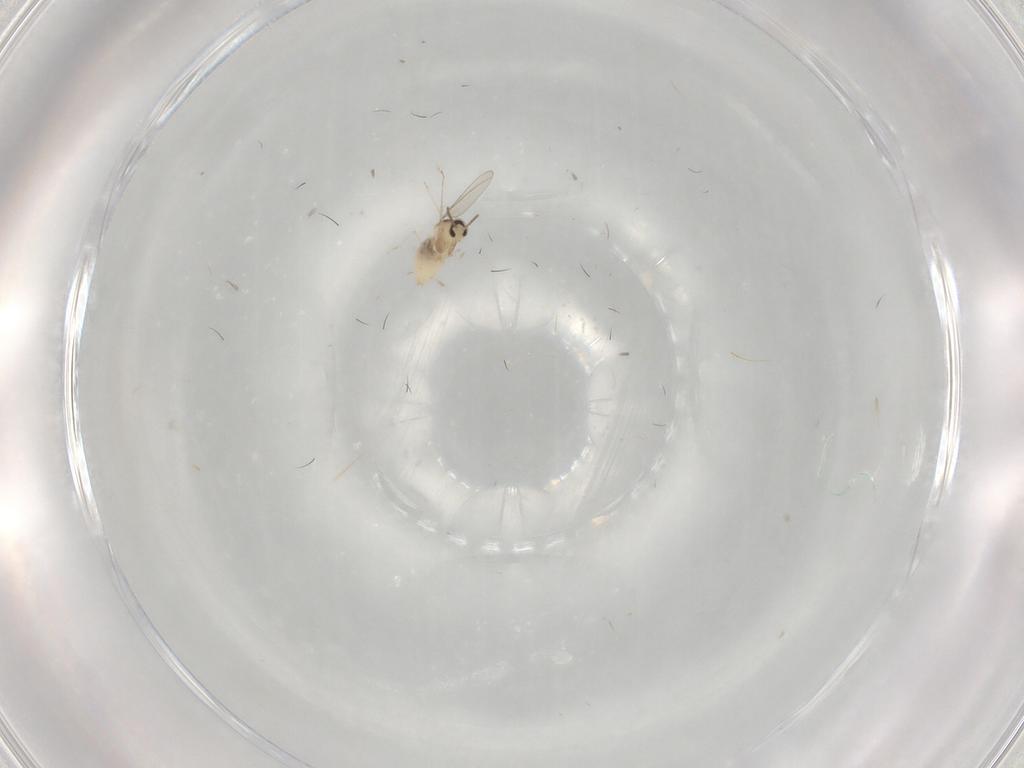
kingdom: Animalia
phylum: Arthropoda
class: Insecta
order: Diptera
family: Cecidomyiidae
